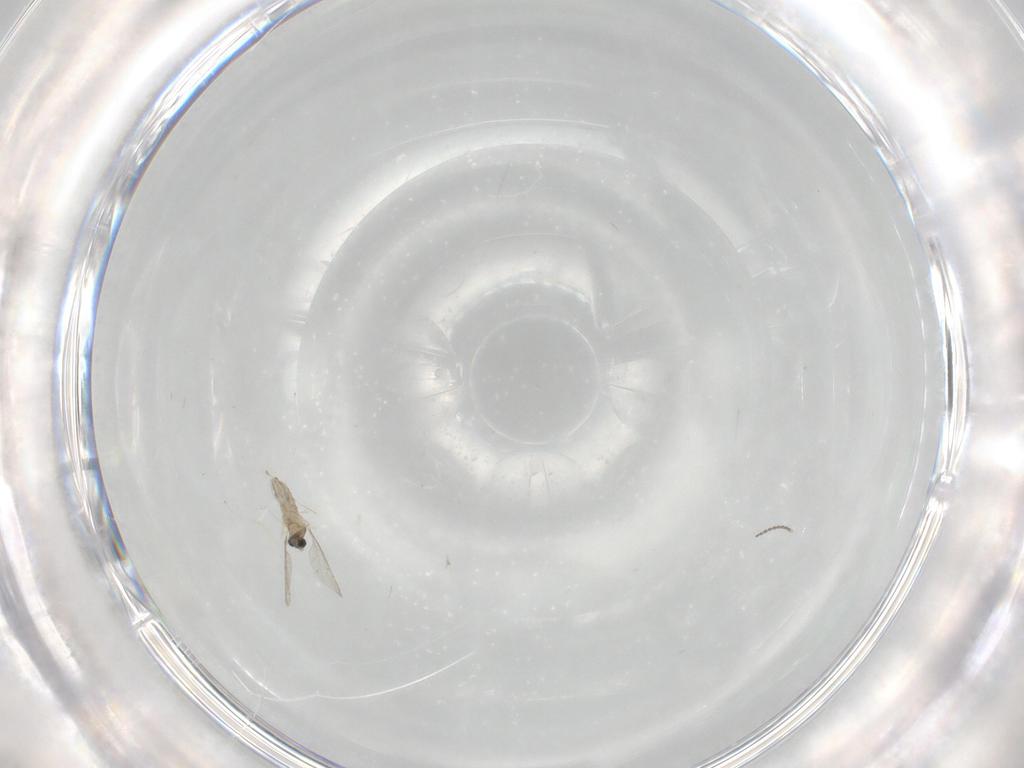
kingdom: Animalia
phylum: Arthropoda
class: Insecta
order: Diptera
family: Cecidomyiidae
